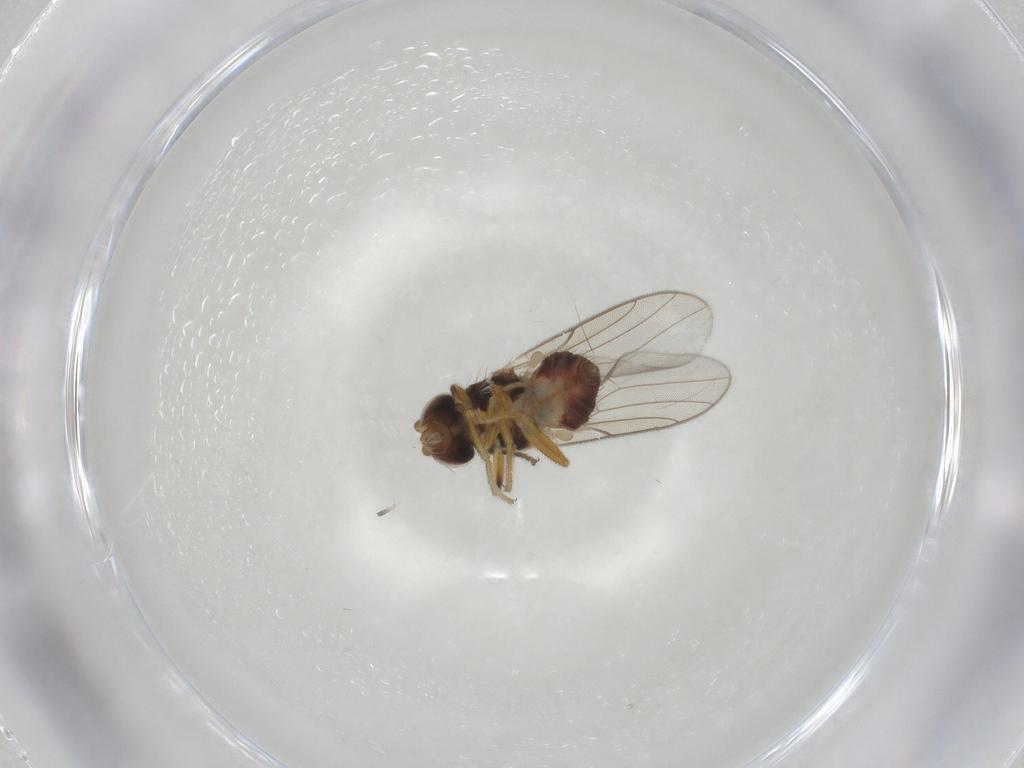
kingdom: Animalia
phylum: Arthropoda
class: Insecta
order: Diptera
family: Chloropidae
